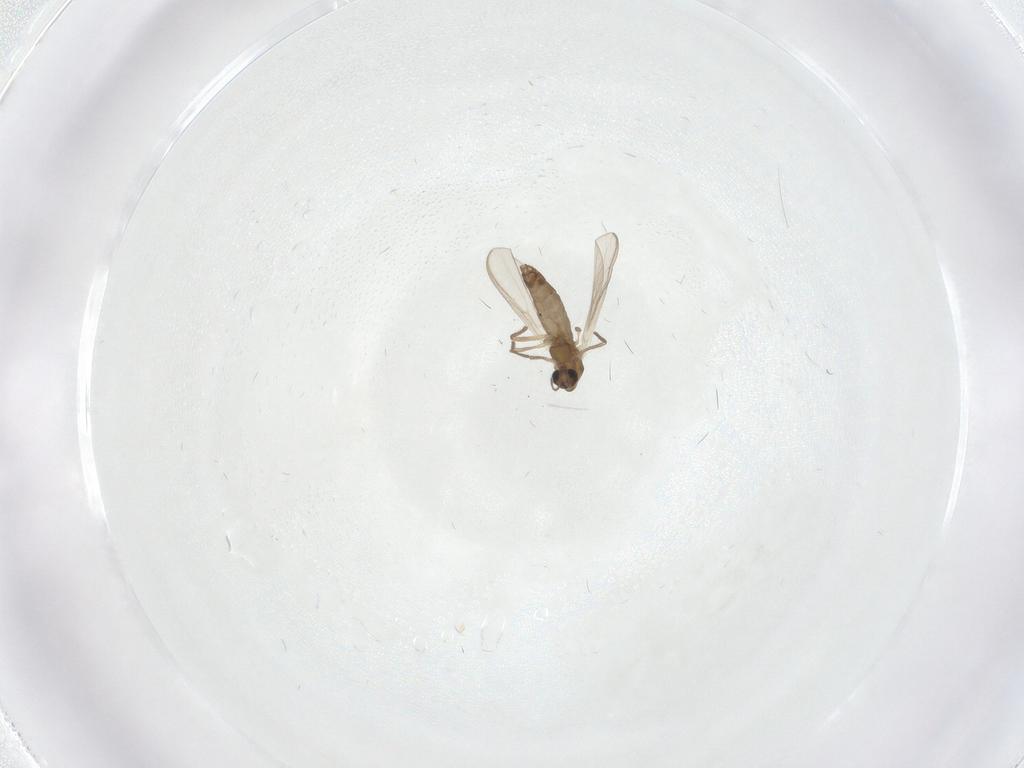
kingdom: Animalia
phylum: Arthropoda
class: Insecta
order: Diptera
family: Chironomidae
